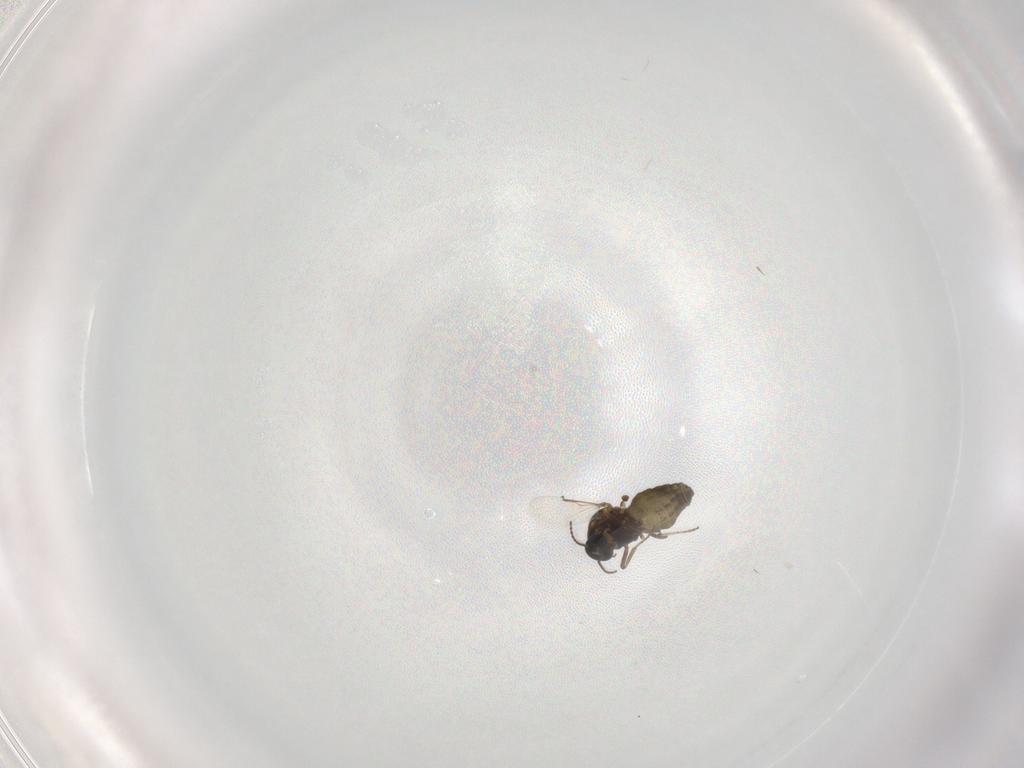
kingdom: Animalia
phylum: Arthropoda
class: Insecta
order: Diptera
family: Ceratopogonidae
